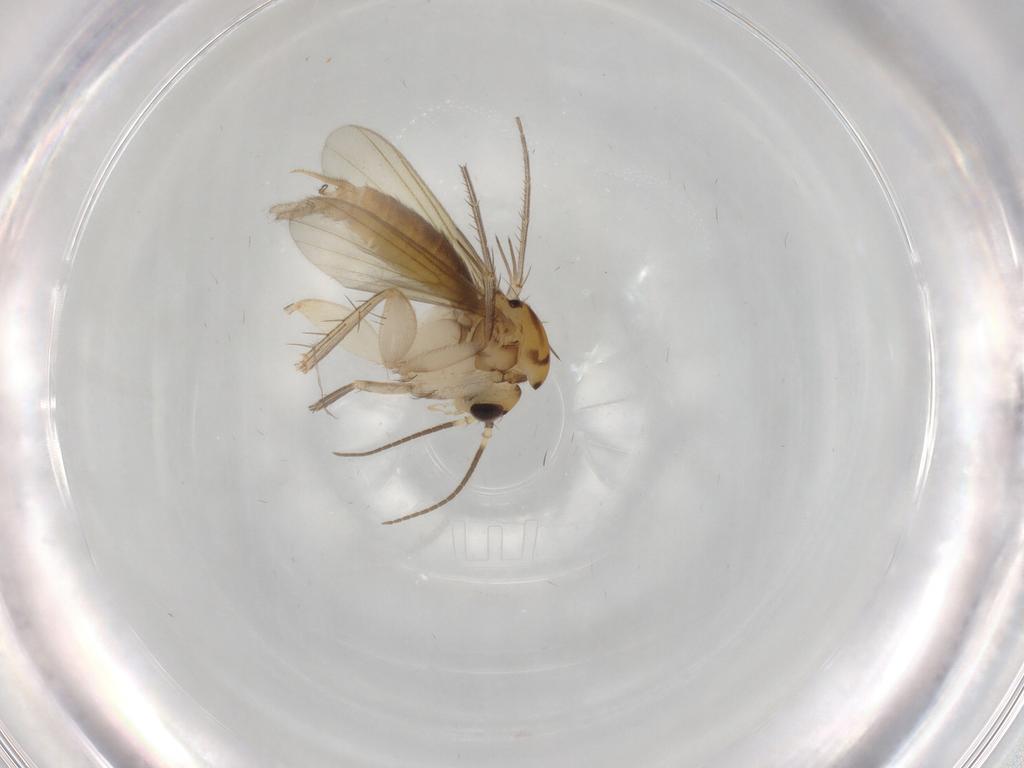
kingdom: Animalia
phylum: Arthropoda
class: Insecta
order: Diptera
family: Mycetophilidae
